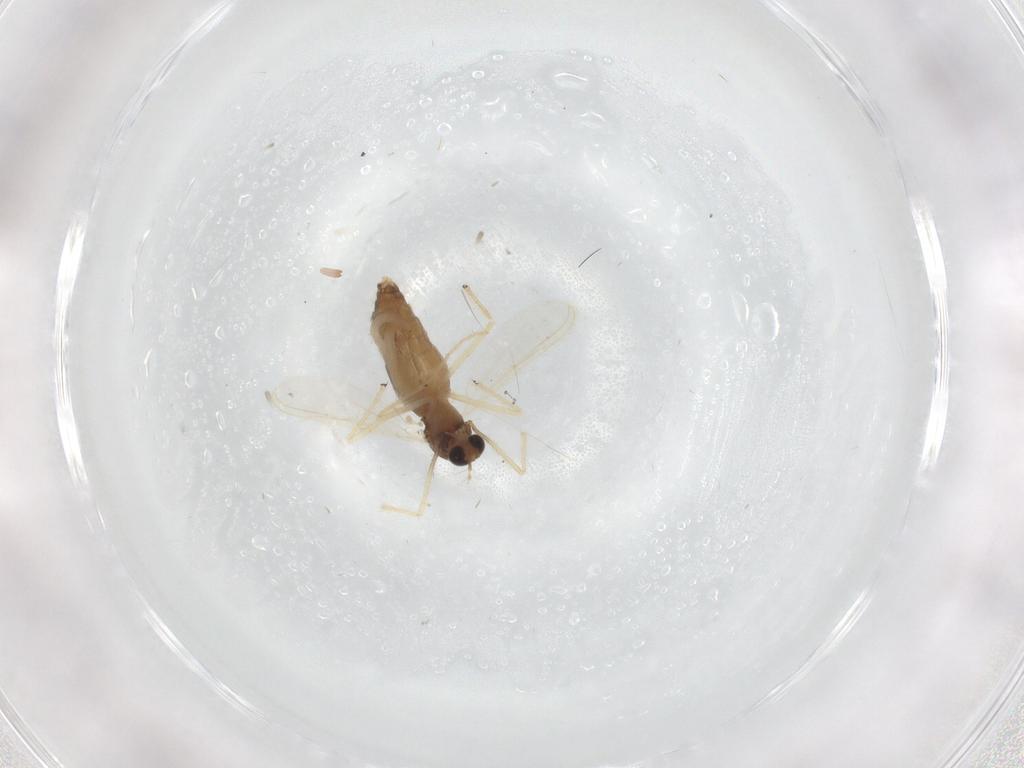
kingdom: Animalia
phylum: Arthropoda
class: Insecta
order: Diptera
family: Chironomidae
